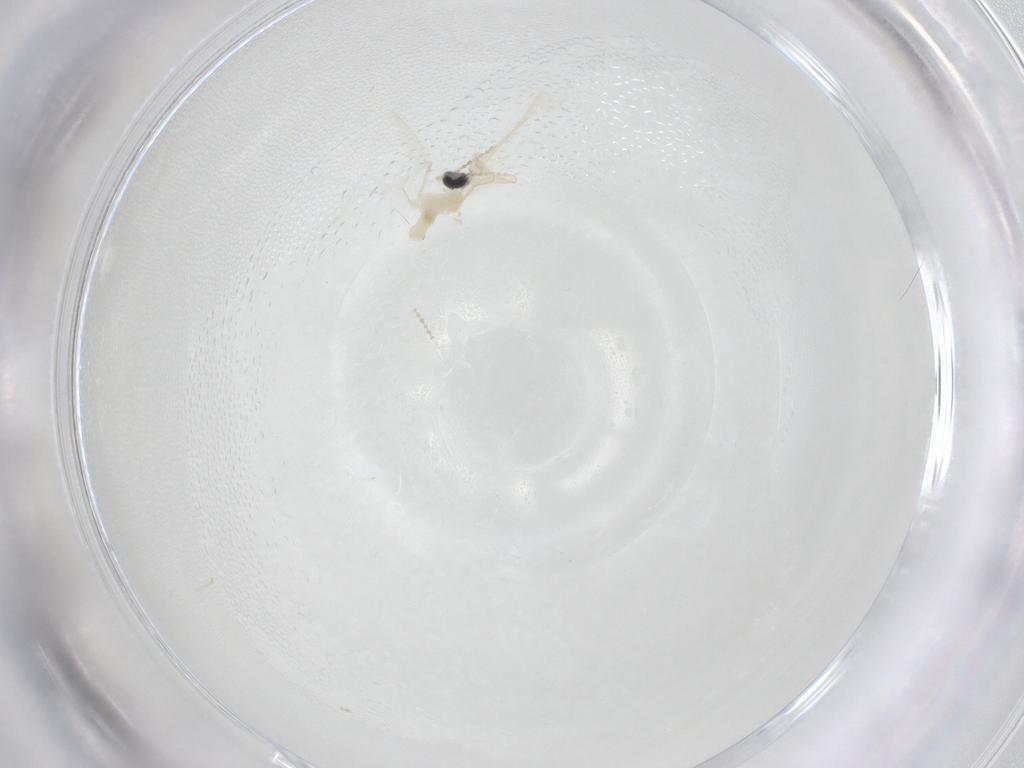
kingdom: Animalia
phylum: Arthropoda
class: Insecta
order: Diptera
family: Cecidomyiidae
